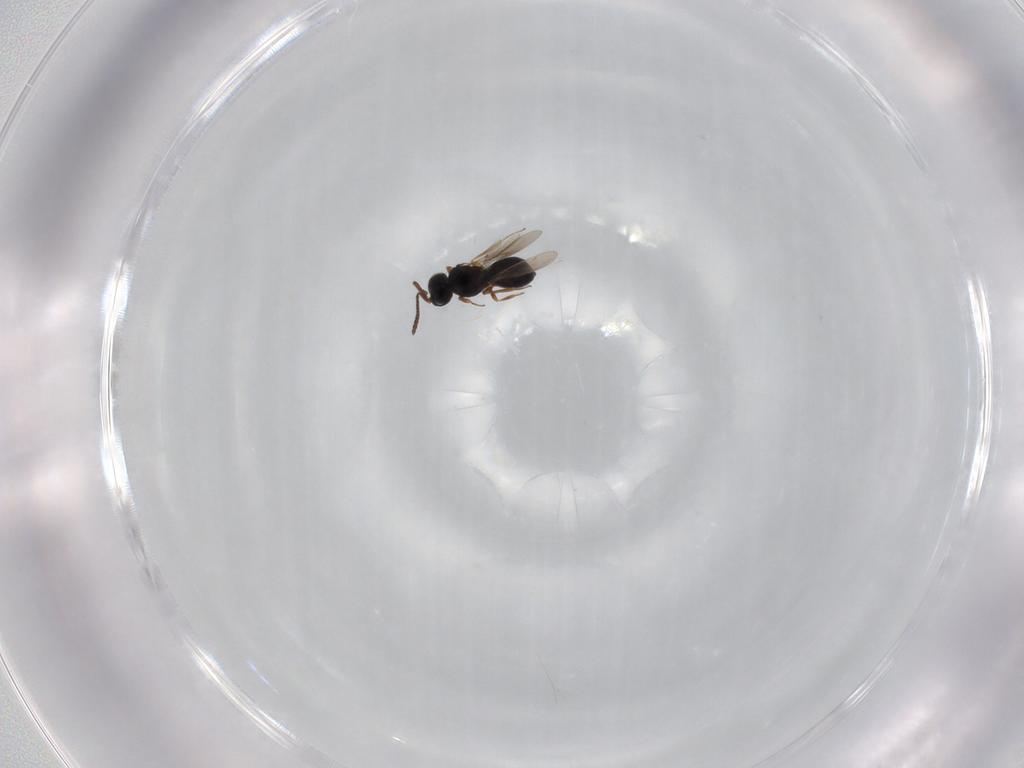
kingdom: Animalia
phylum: Arthropoda
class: Insecta
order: Hymenoptera
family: Scelionidae
